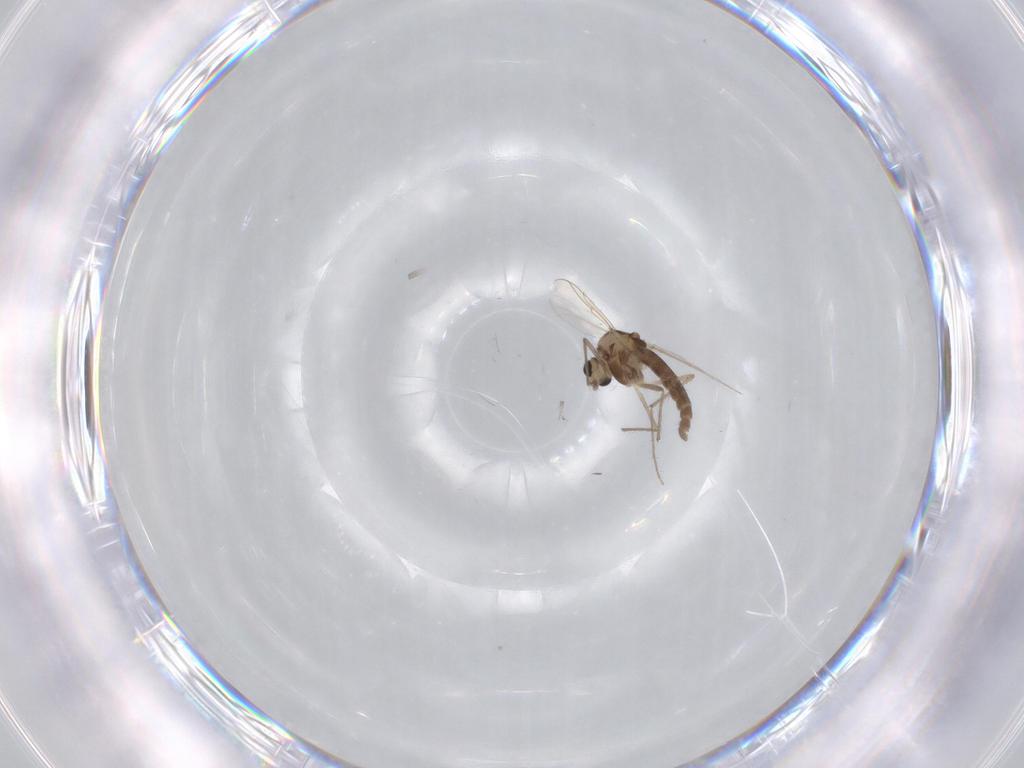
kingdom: Animalia
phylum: Arthropoda
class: Insecta
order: Diptera
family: Chironomidae
